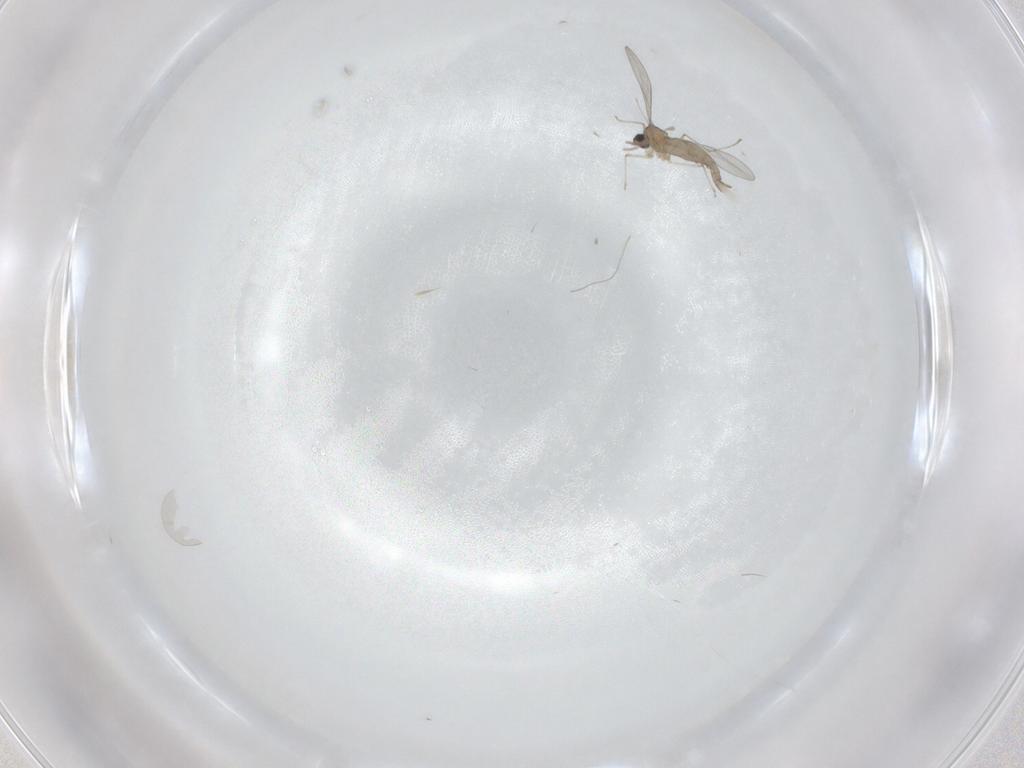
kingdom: Animalia
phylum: Arthropoda
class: Insecta
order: Diptera
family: Cecidomyiidae
